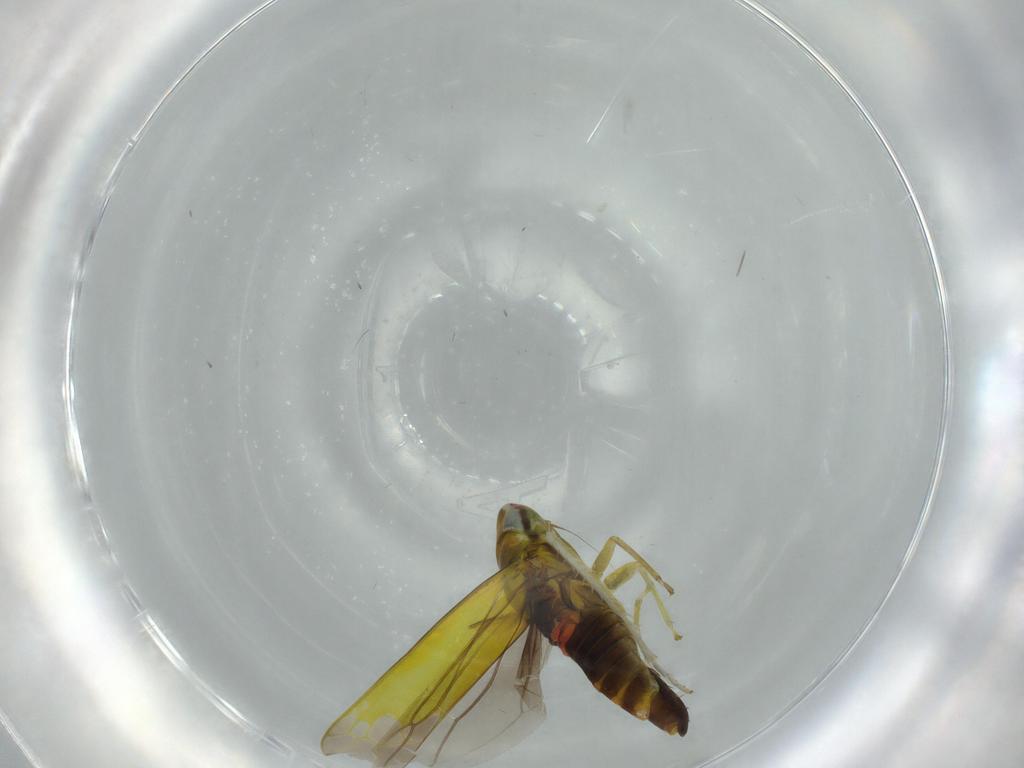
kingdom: Animalia
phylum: Arthropoda
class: Insecta
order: Hemiptera
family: Cicadellidae
